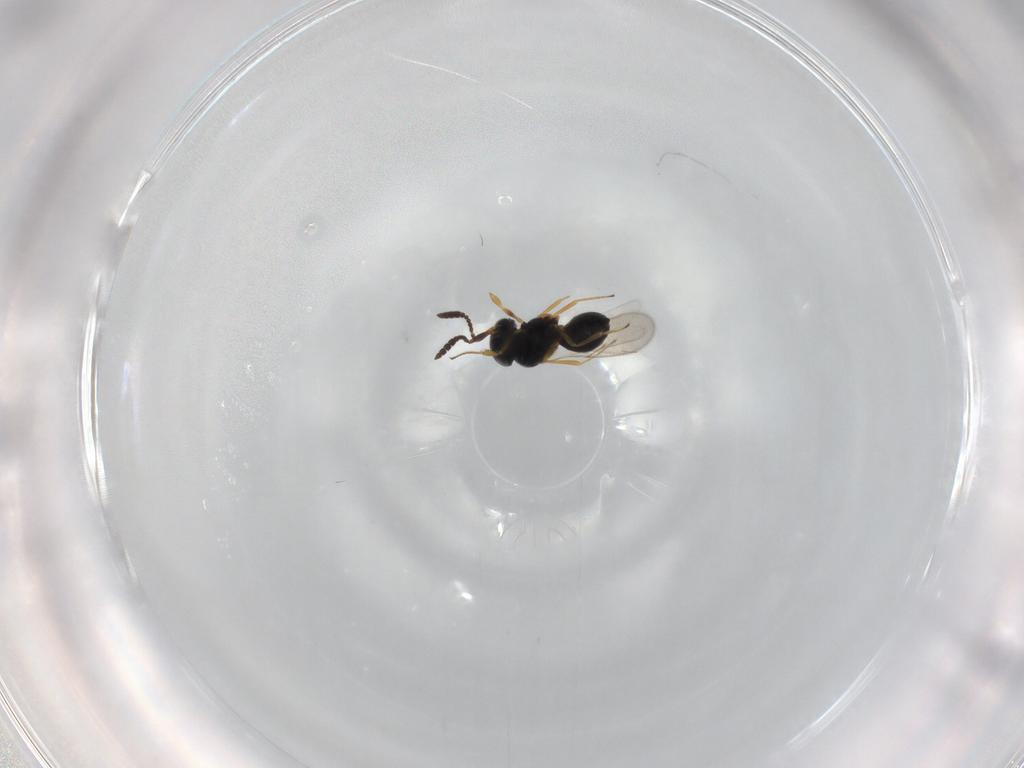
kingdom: Animalia
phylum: Arthropoda
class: Insecta
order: Hymenoptera
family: Scelionidae
